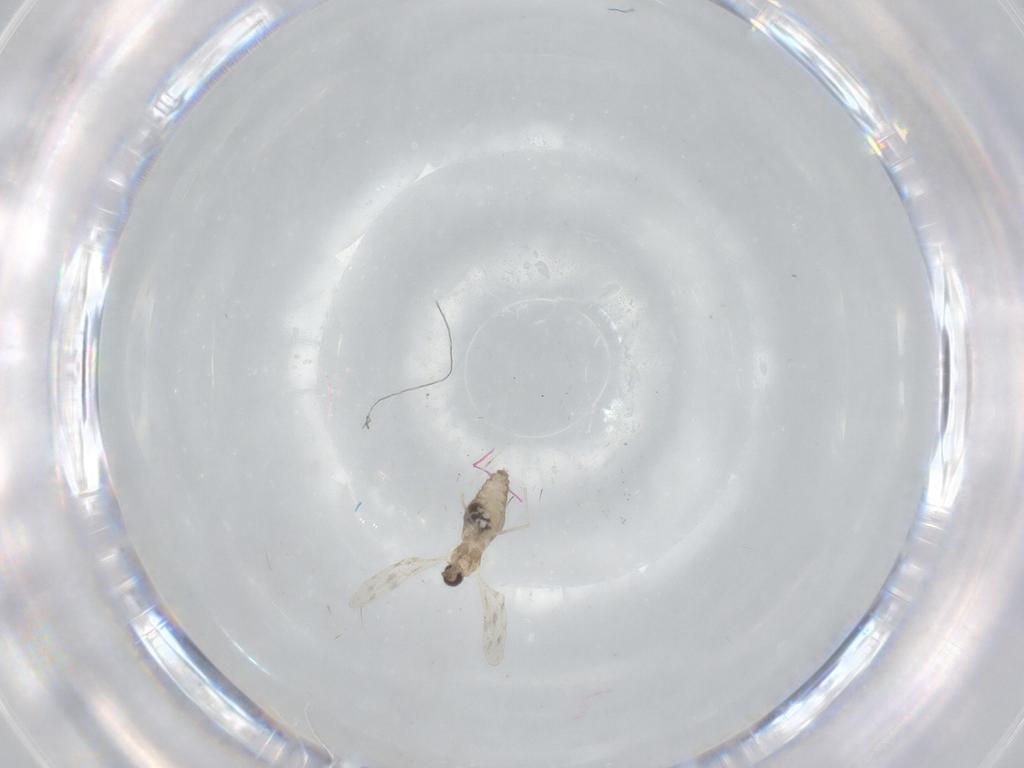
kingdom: Animalia
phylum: Arthropoda
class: Insecta
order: Diptera
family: Cecidomyiidae
